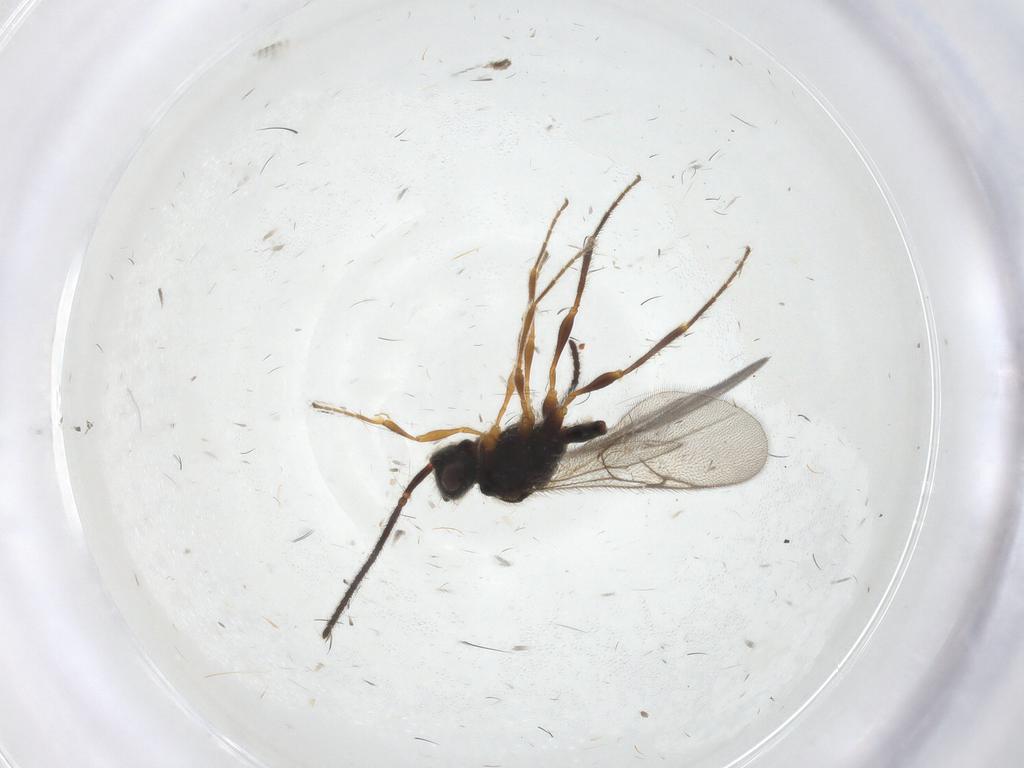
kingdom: Animalia
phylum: Arthropoda
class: Insecta
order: Hymenoptera
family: Diapriidae
